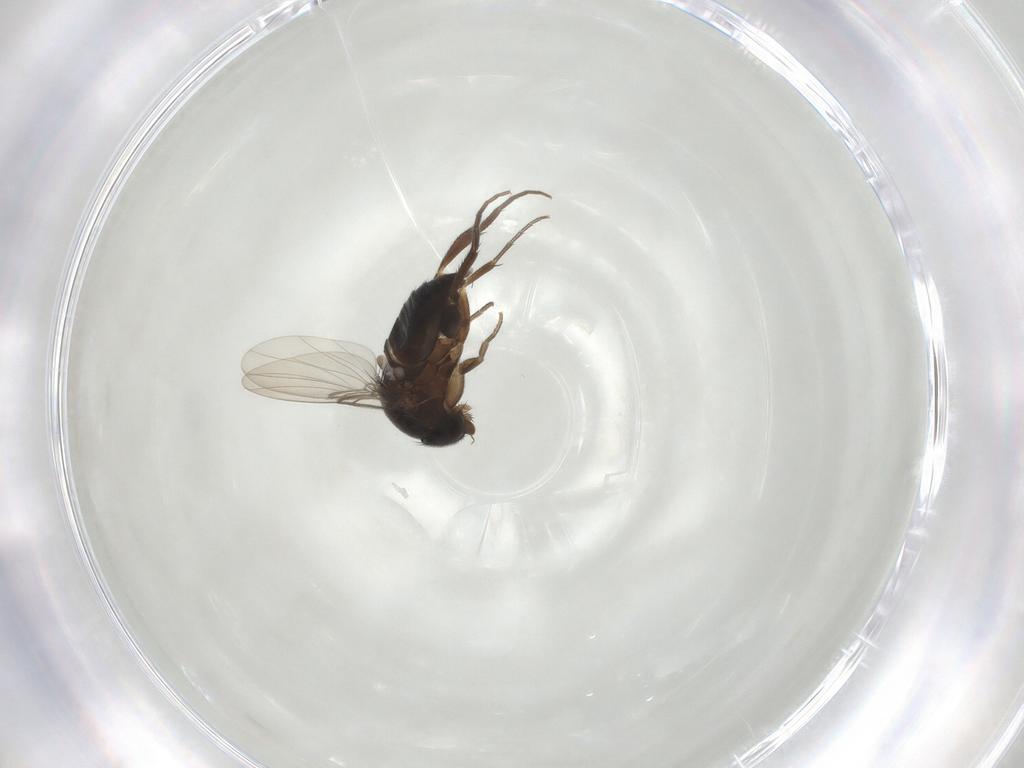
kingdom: Animalia
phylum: Arthropoda
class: Insecta
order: Diptera
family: Phoridae
